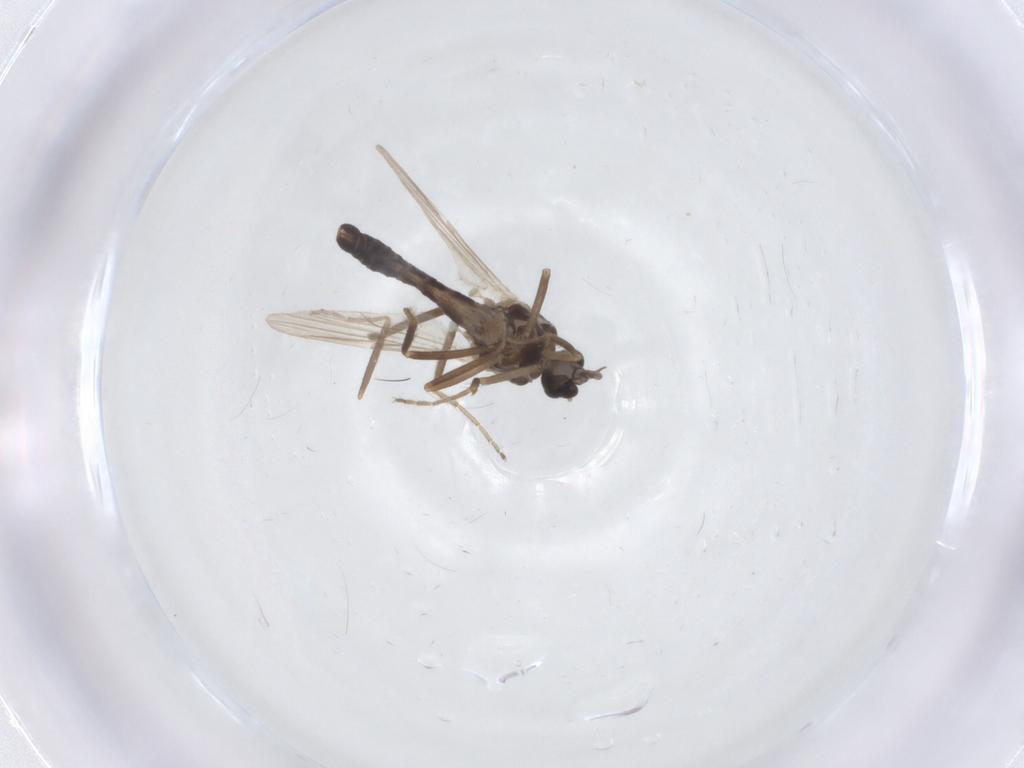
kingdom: Animalia
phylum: Arthropoda
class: Insecta
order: Diptera
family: Ceratopogonidae
